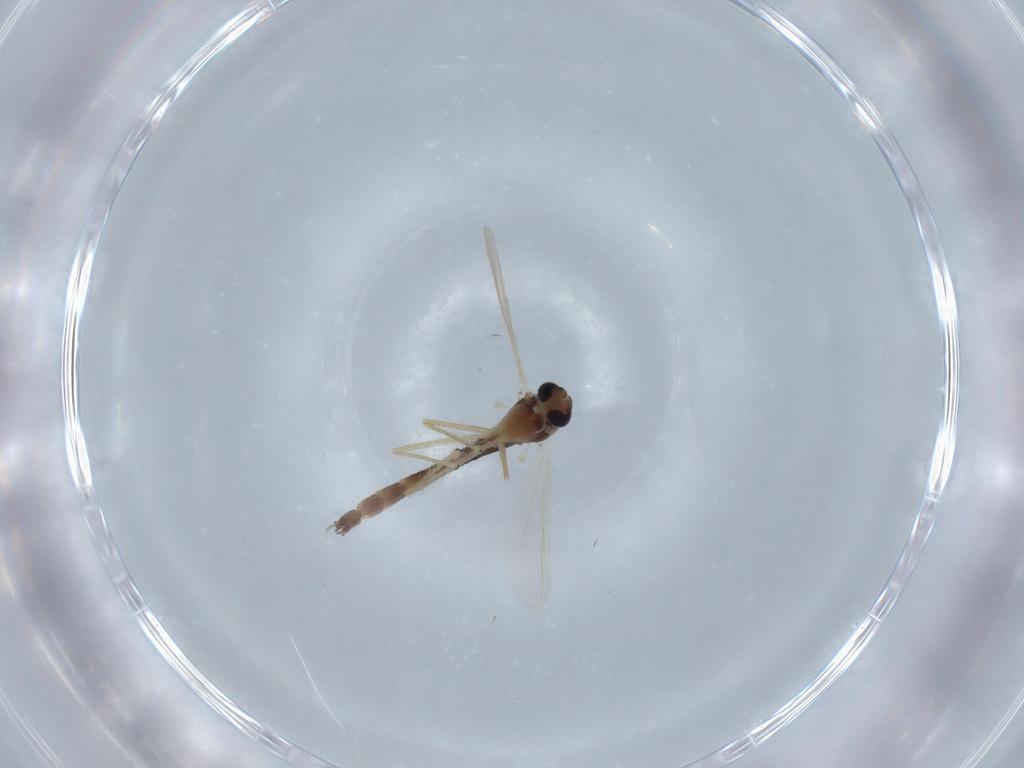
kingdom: Animalia
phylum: Arthropoda
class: Insecta
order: Diptera
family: Chironomidae
